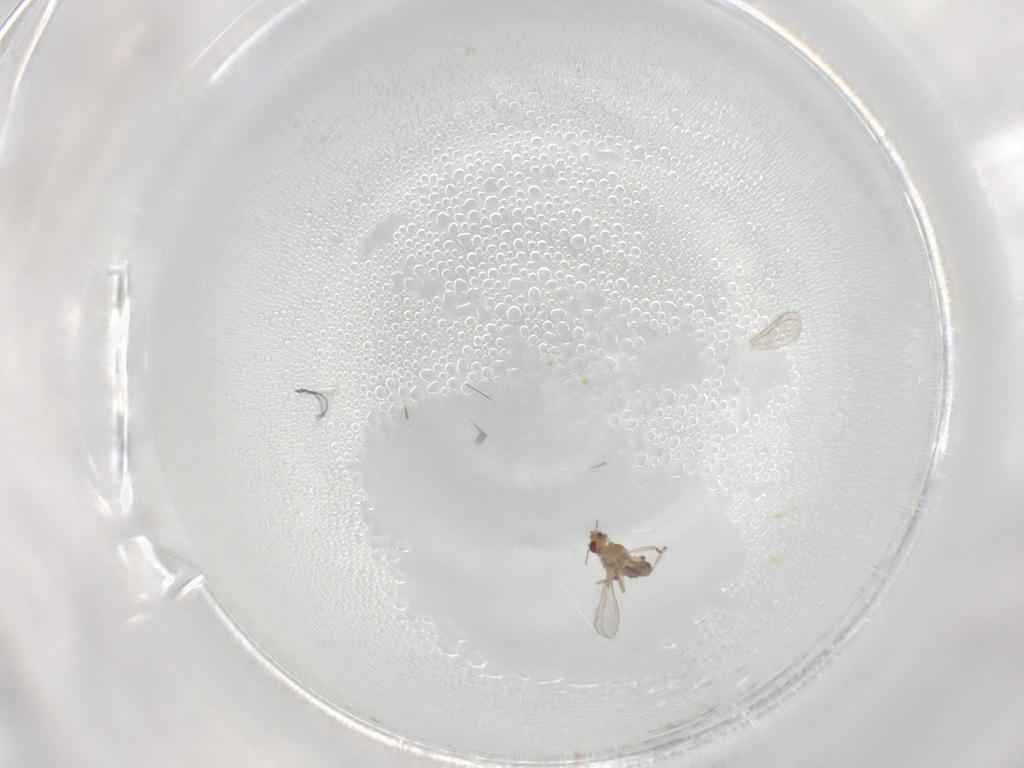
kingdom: Animalia
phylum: Arthropoda
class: Insecta
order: Diptera
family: Chironomidae
